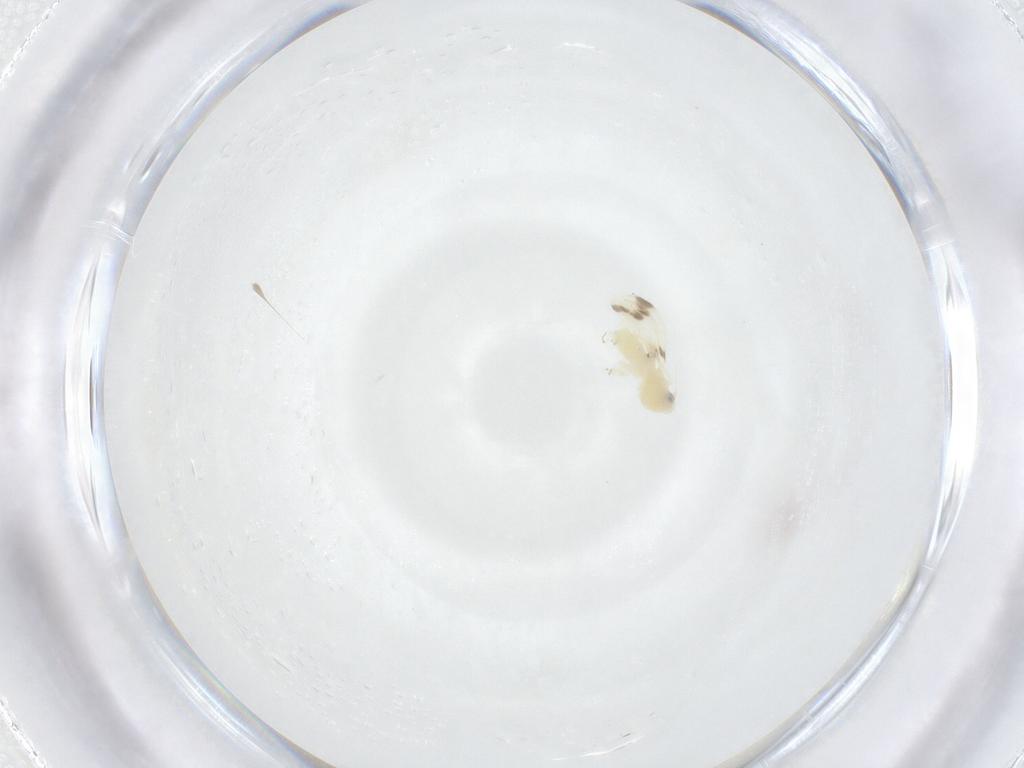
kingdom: Animalia
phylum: Arthropoda
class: Insecta
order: Hemiptera
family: Aleyrodidae
